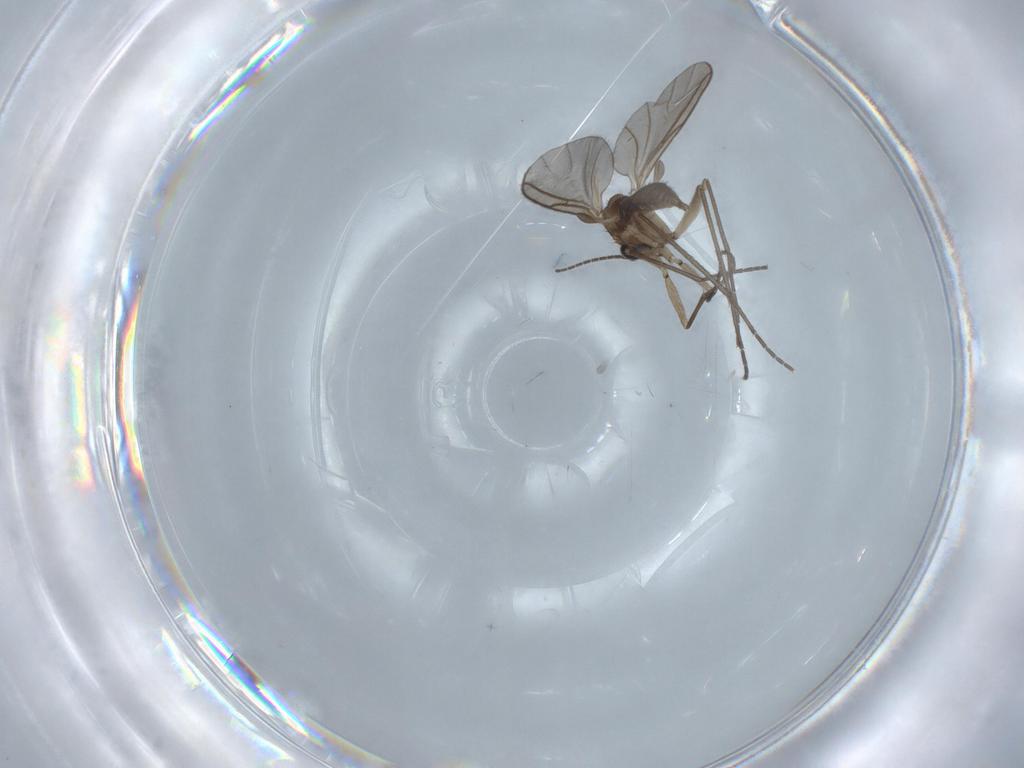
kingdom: Animalia
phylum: Arthropoda
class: Insecta
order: Diptera
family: Sciaridae
